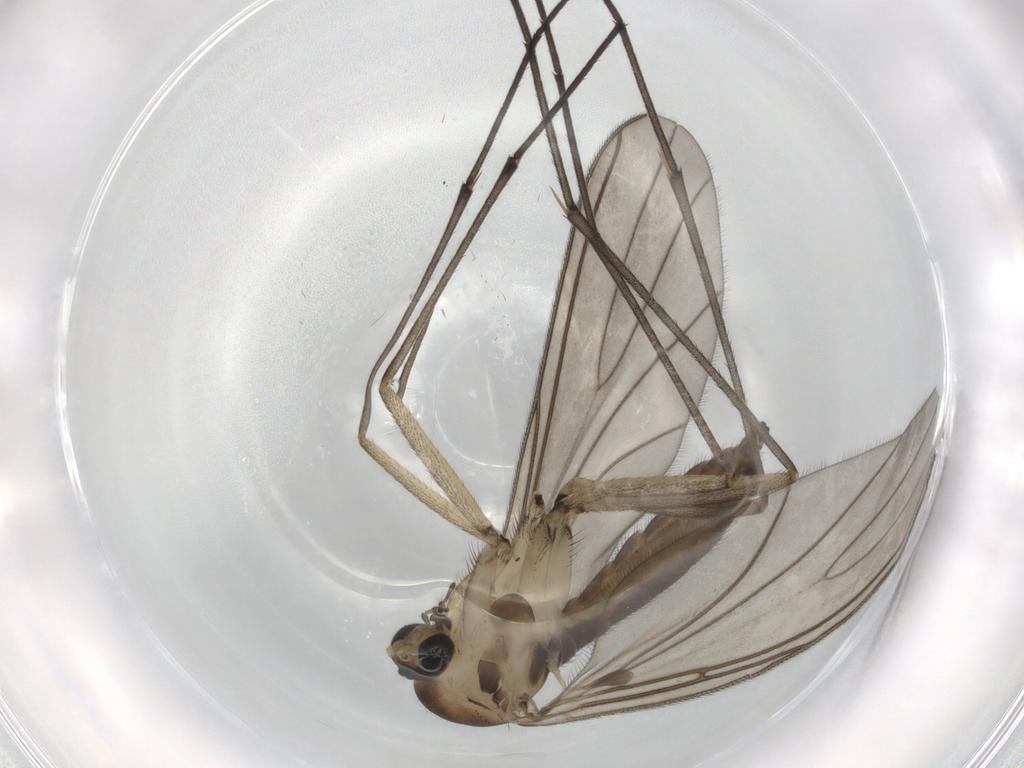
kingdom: Animalia
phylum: Arthropoda
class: Insecta
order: Diptera
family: Sciaridae
